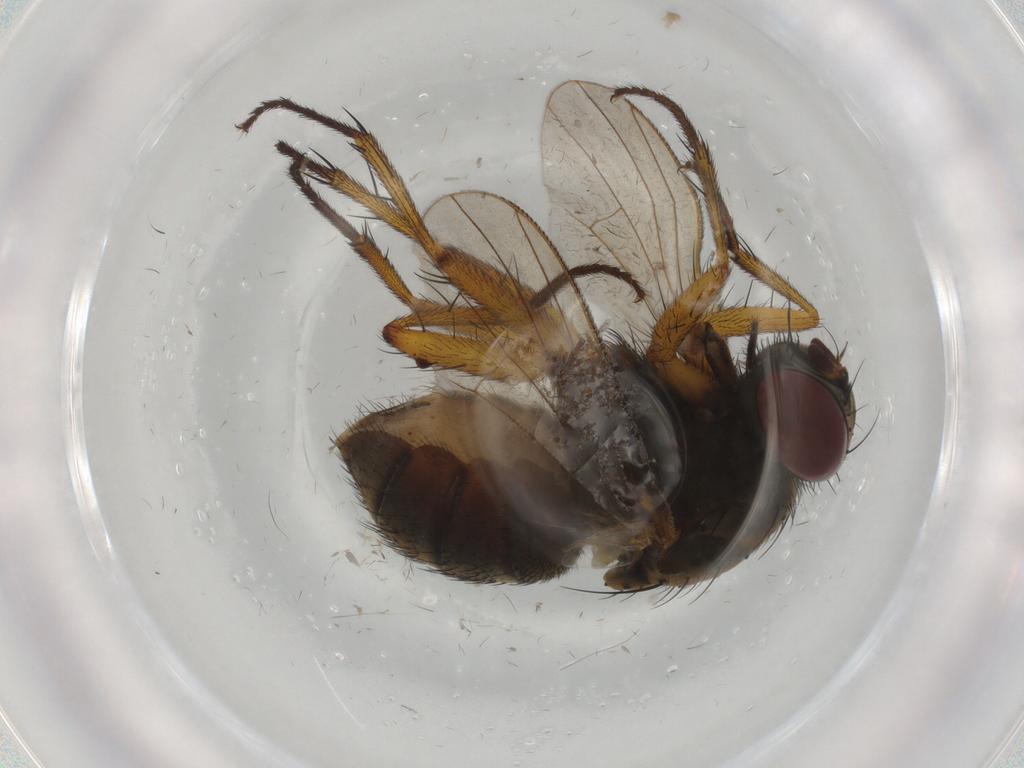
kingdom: Animalia
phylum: Arthropoda
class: Insecta
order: Diptera
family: Muscidae
